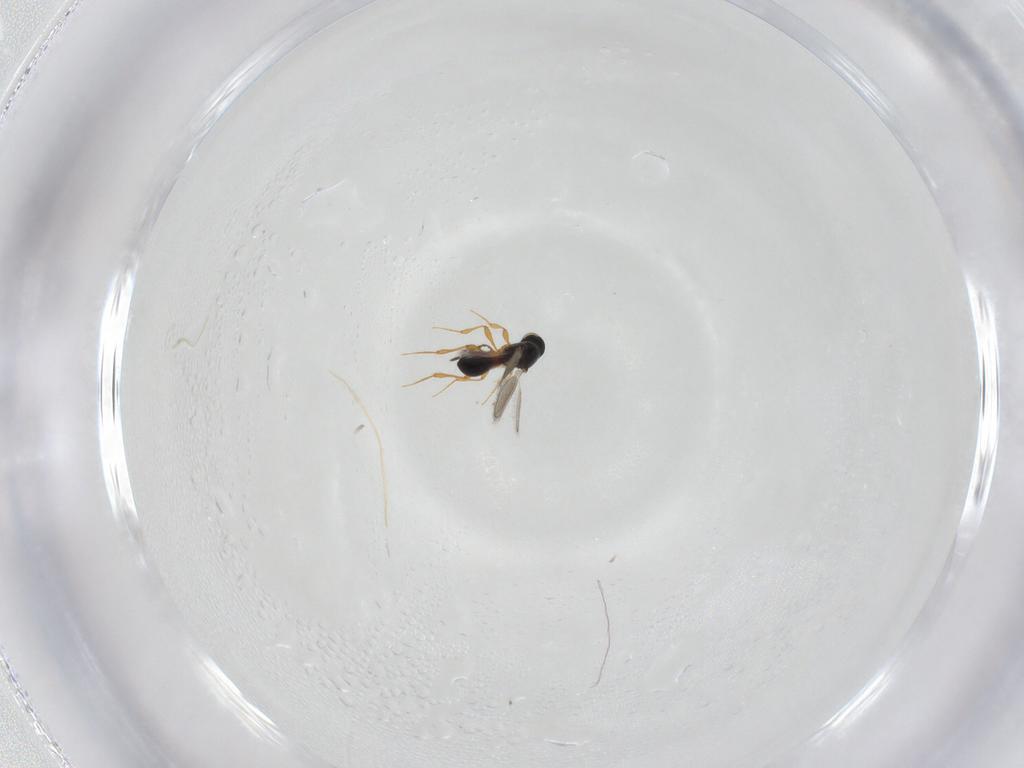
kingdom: Animalia
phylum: Arthropoda
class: Insecta
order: Hymenoptera
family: Platygastridae
